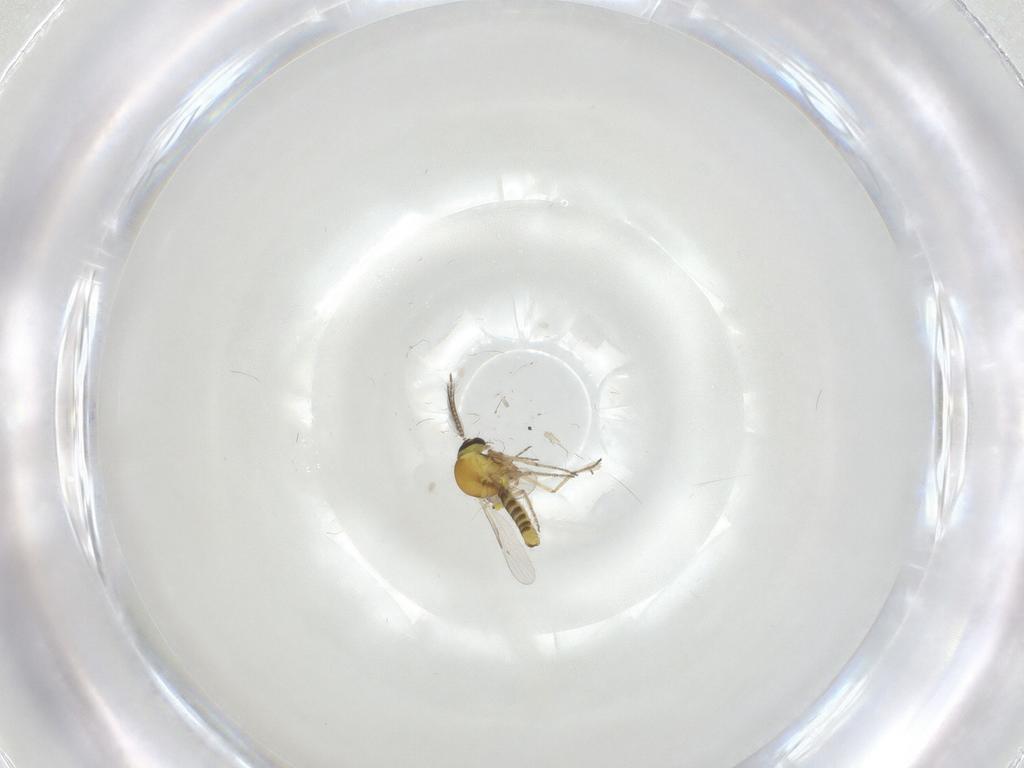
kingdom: Animalia
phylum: Arthropoda
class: Insecta
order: Diptera
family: Ceratopogonidae
